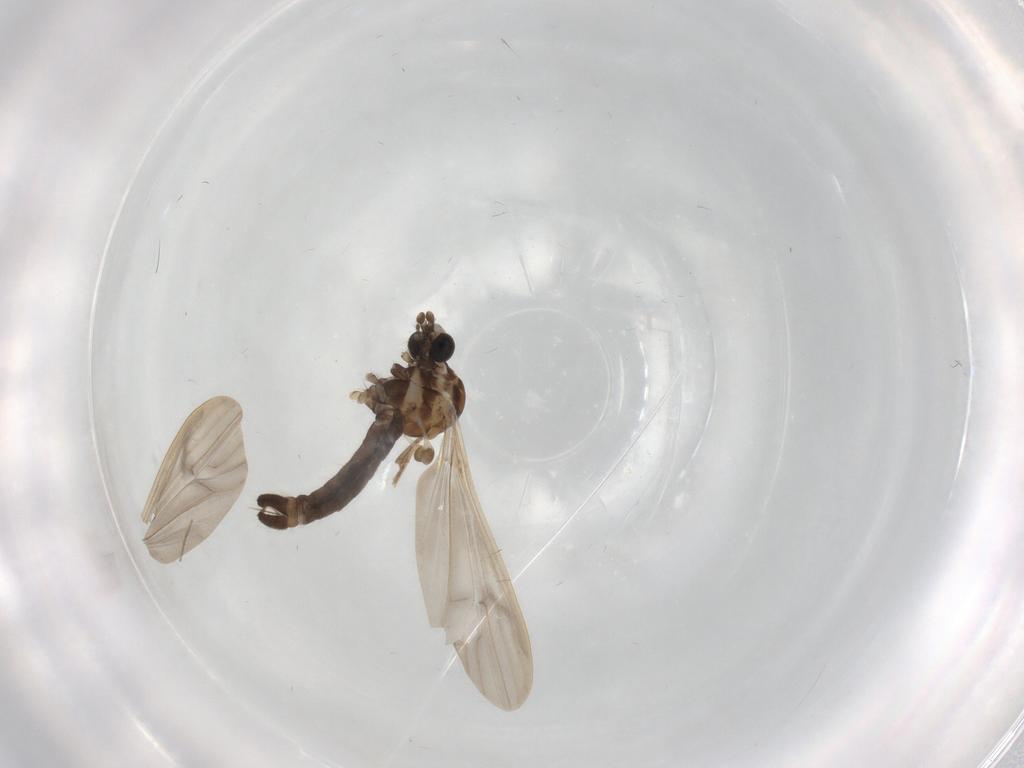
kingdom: Animalia
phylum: Arthropoda
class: Insecta
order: Diptera
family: Limoniidae
